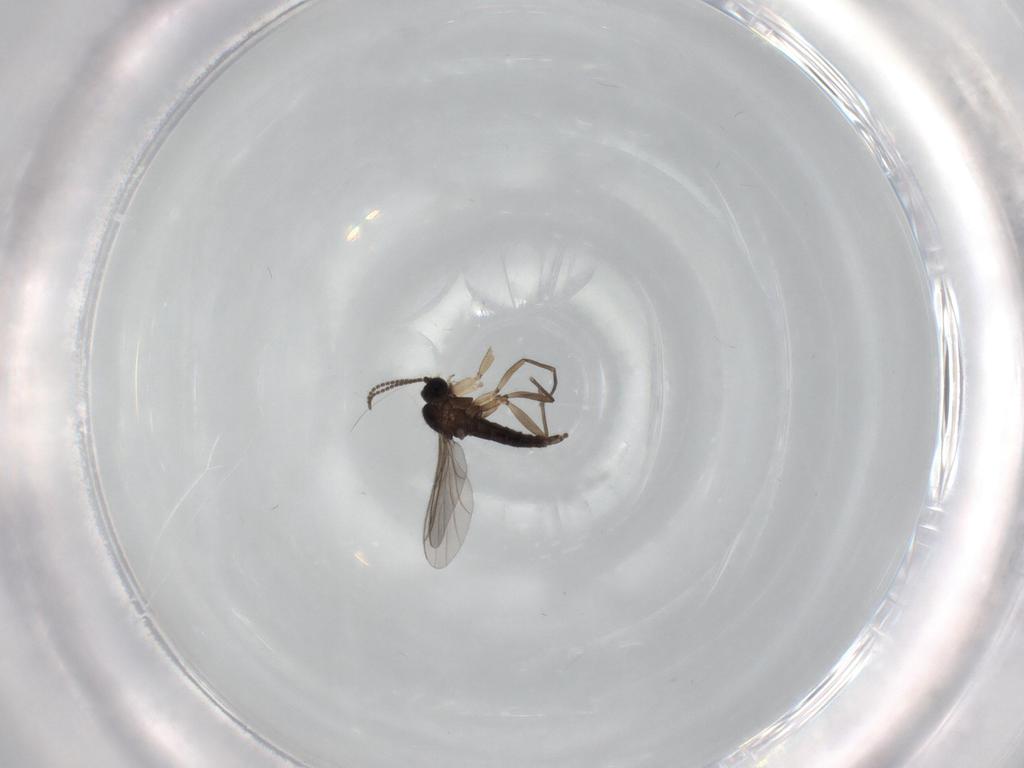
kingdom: Animalia
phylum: Arthropoda
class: Insecta
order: Diptera
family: Sciaridae
